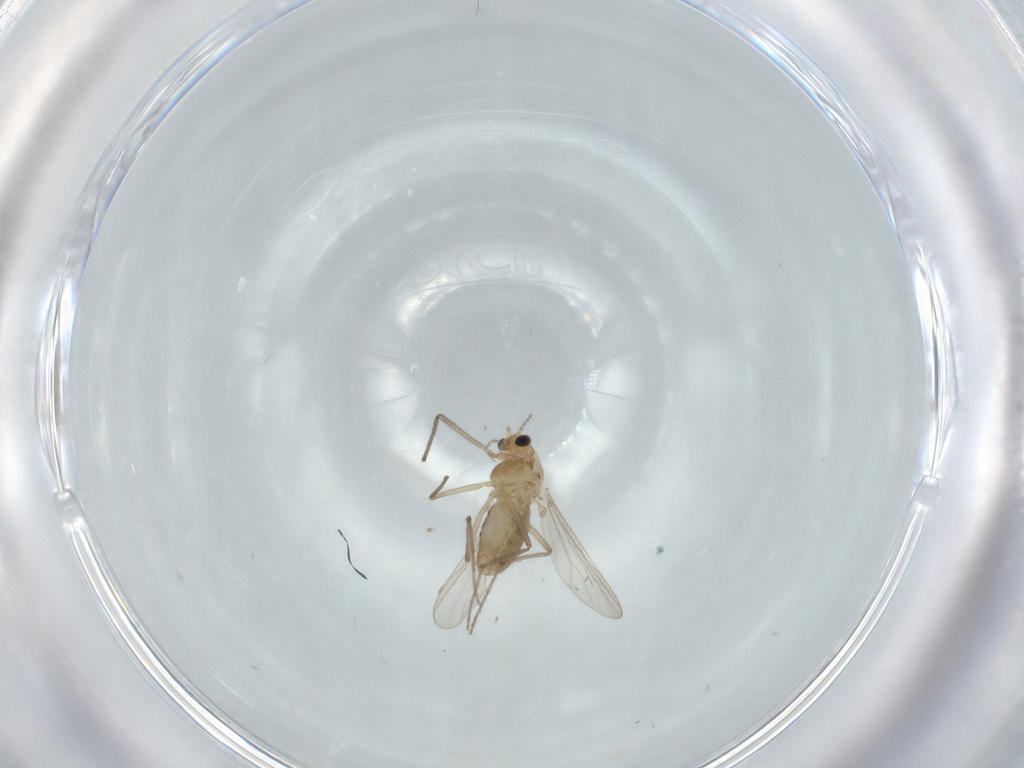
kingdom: Animalia
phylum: Arthropoda
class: Insecta
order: Diptera
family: Chironomidae
